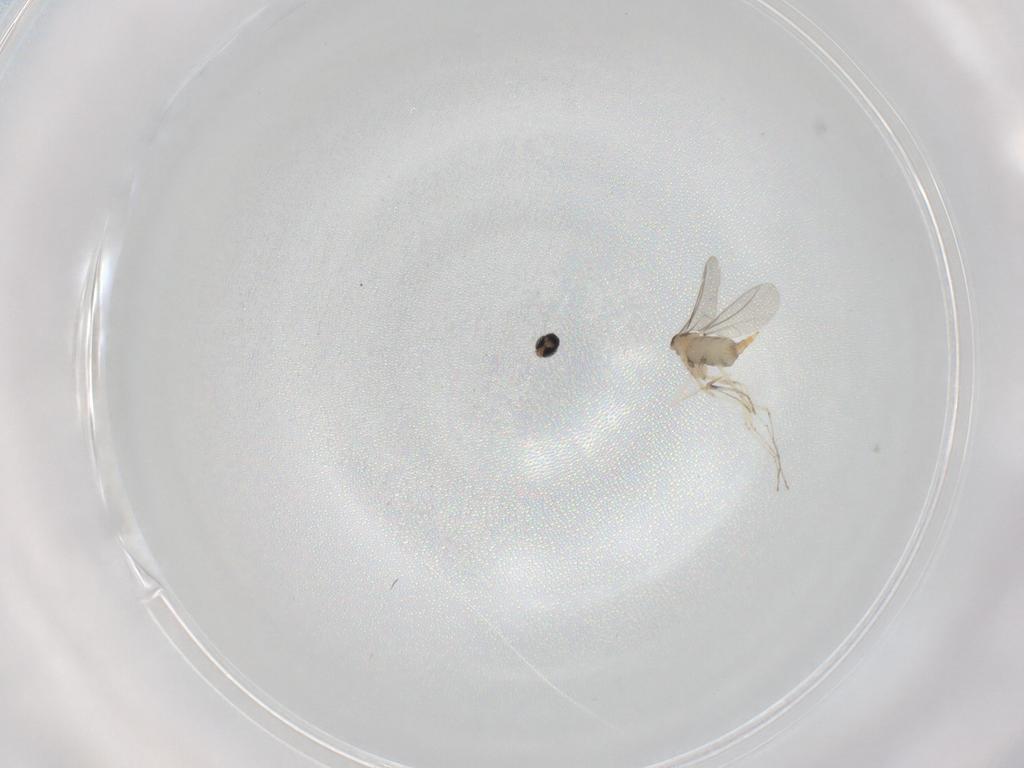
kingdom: Animalia
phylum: Arthropoda
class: Insecta
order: Diptera
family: Cecidomyiidae
